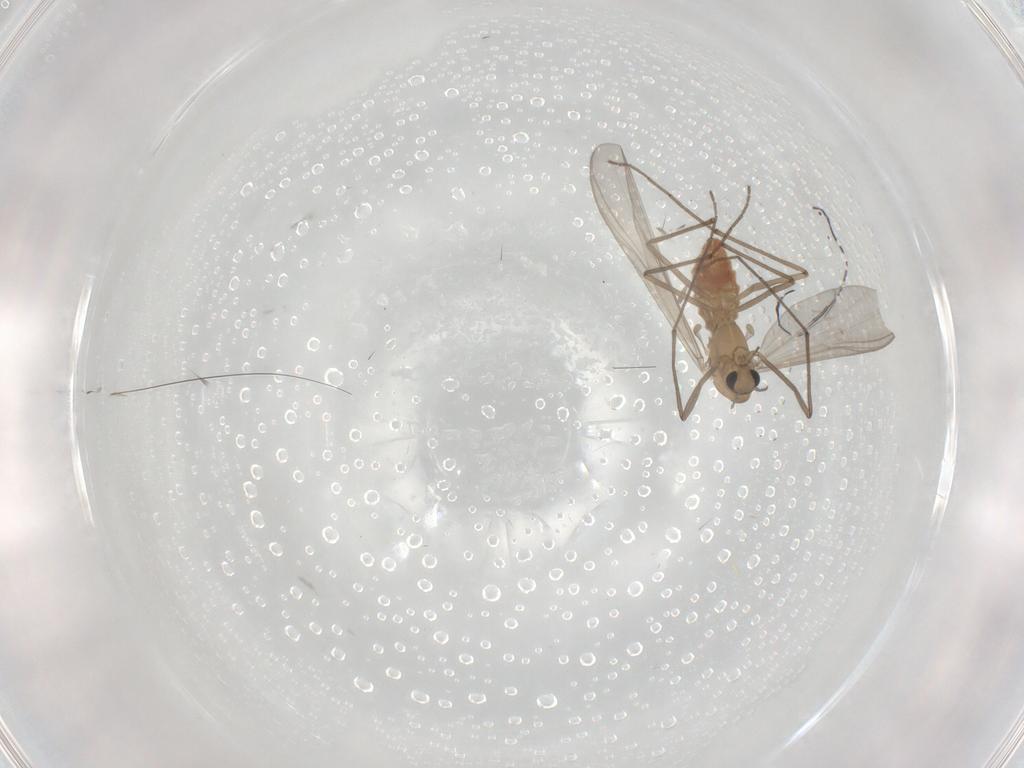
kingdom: Animalia
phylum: Arthropoda
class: Insecta
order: Diptera
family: Chironomidae
